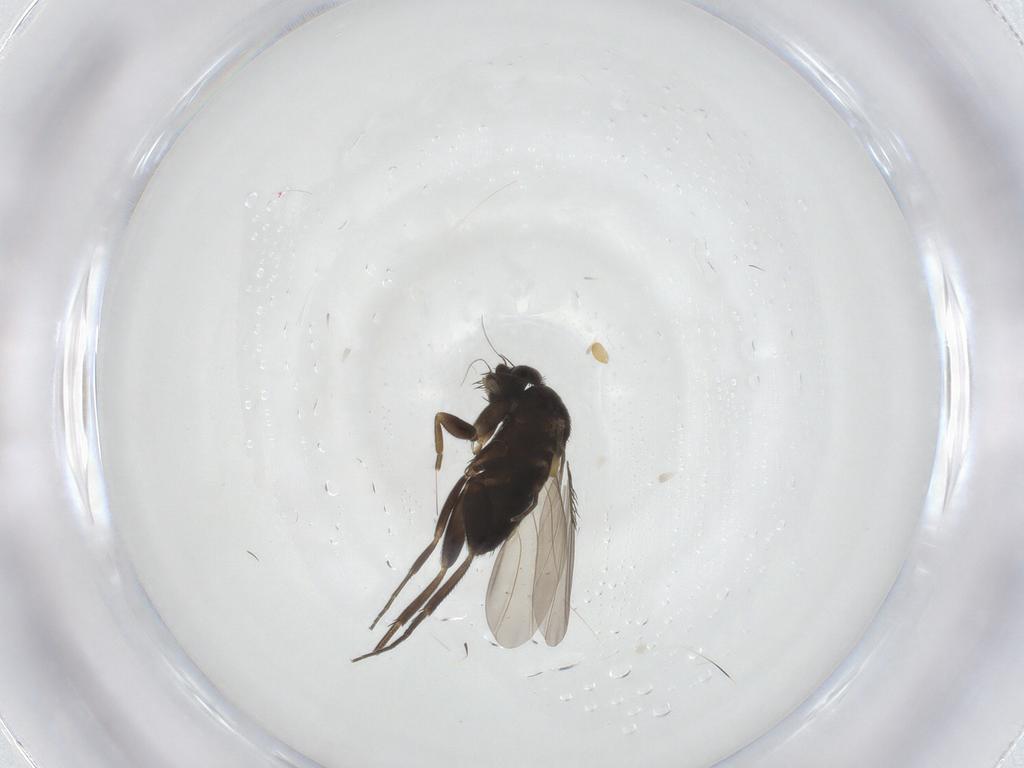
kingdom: Animalia
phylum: Arthropoda
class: Insecta
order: Diptera
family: Phoridae
